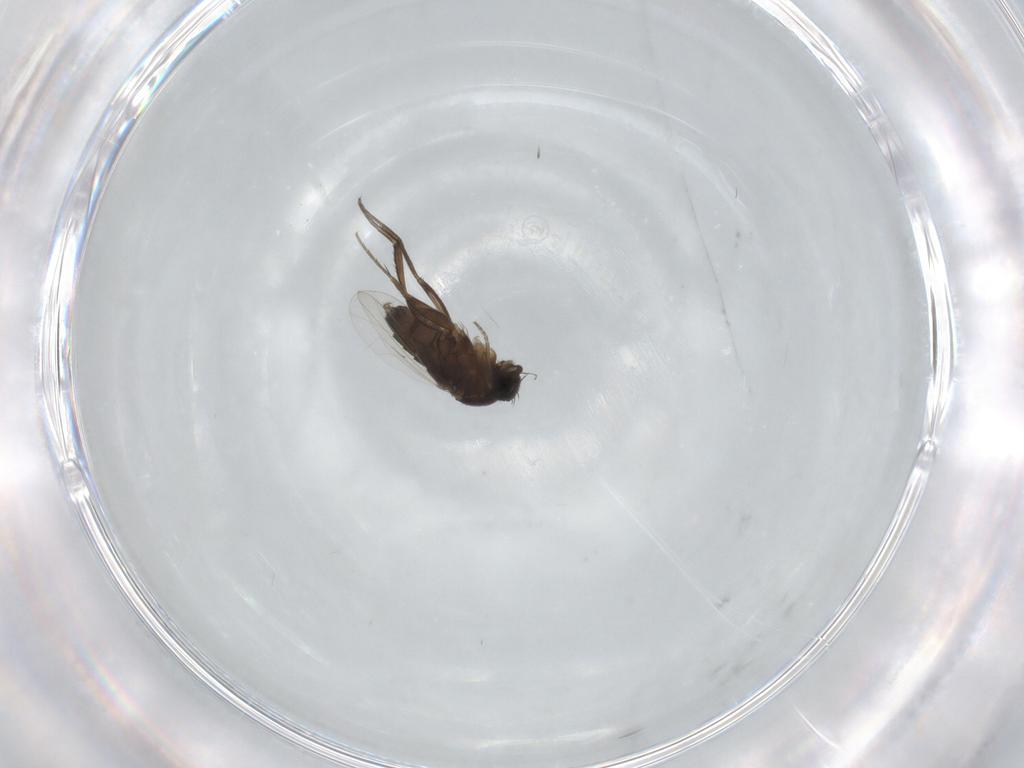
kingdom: Animalia
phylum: Arthropoda
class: Insecta
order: Diptera
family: Phoridae
